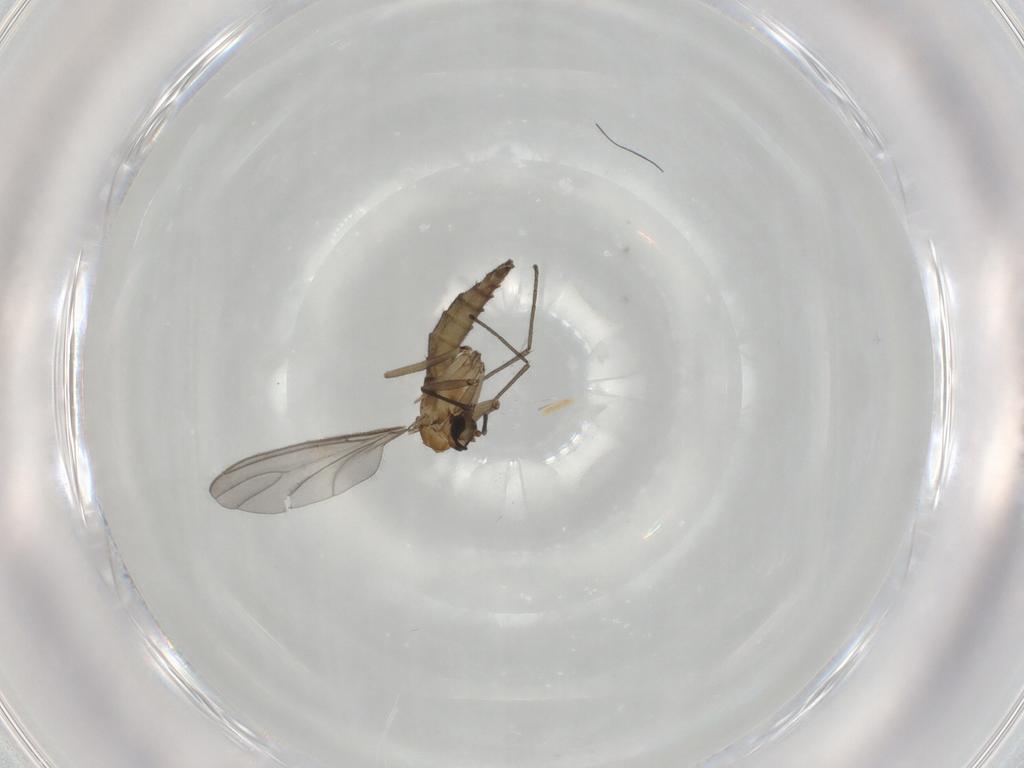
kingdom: Animalia
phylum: Arthropoda
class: Insecta
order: Diptera
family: Sciaridae
